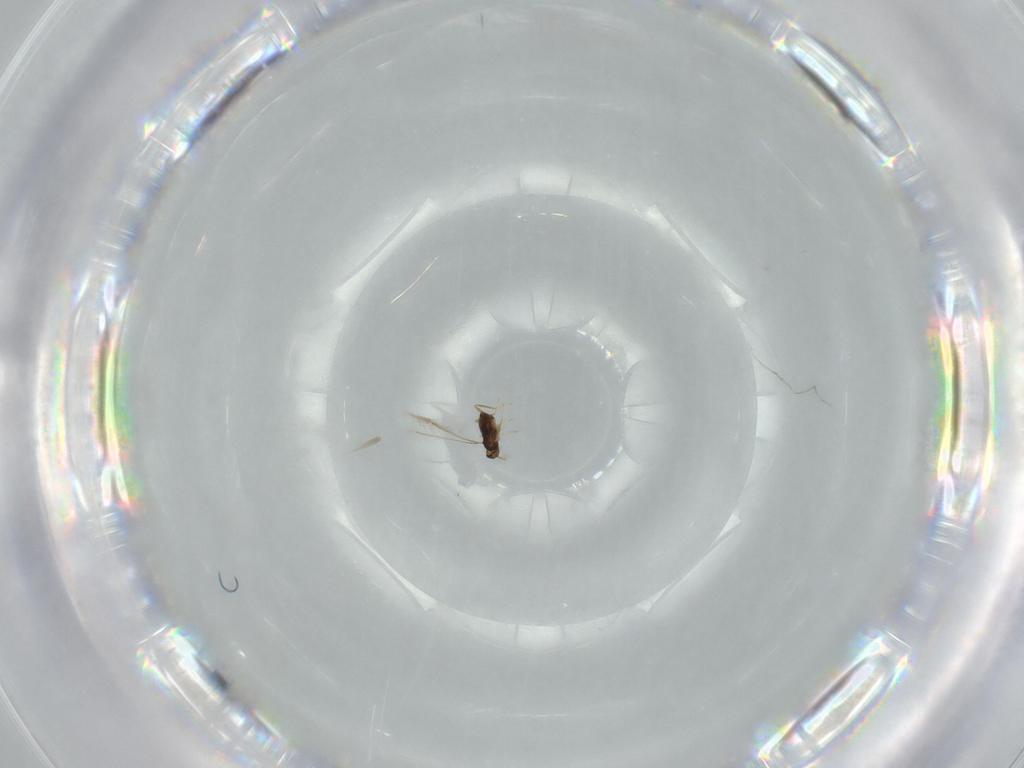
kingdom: Animalia
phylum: Arthropoda
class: Insecta
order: Hymenoptera
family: Mymaridae
